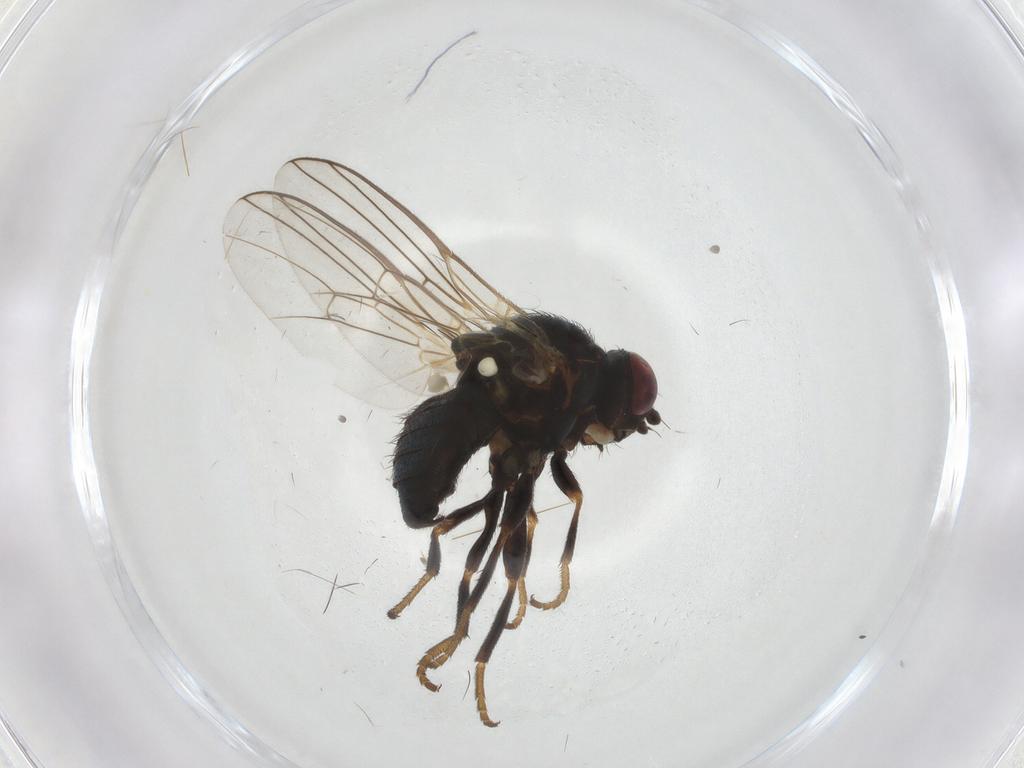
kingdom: Animalia
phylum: Arthropoda
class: Insecta
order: Diptera
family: Agromyzidae
